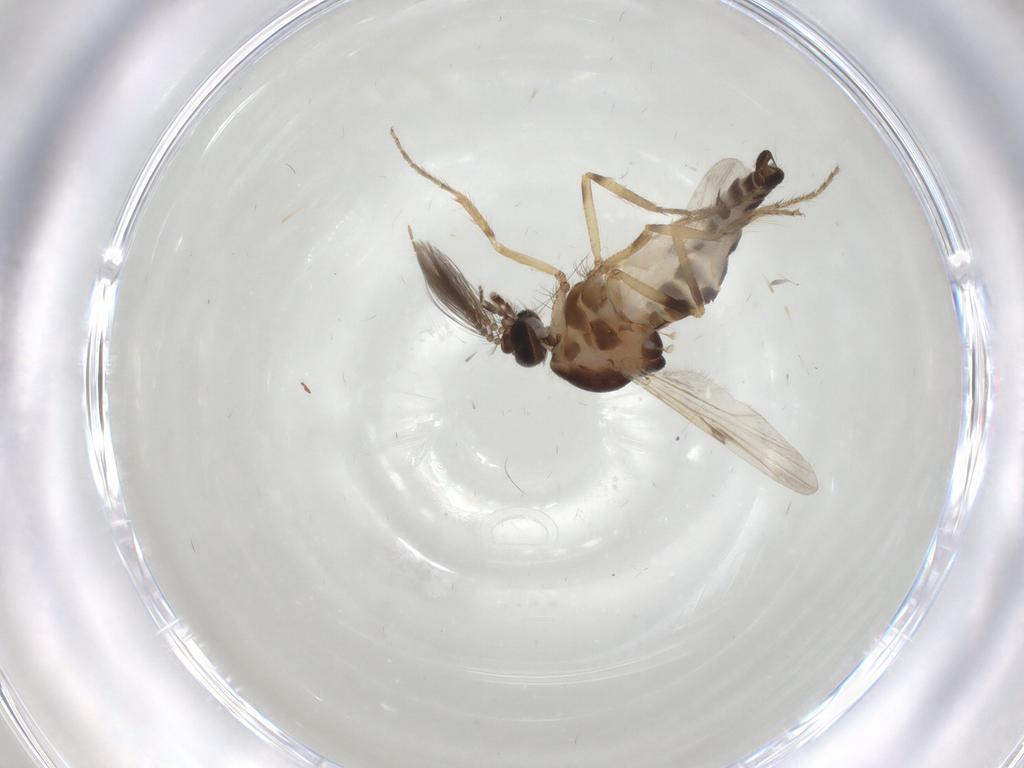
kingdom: Animalia
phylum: Arthropoda
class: Insecta
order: Diptera
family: Ceratopogonidae
